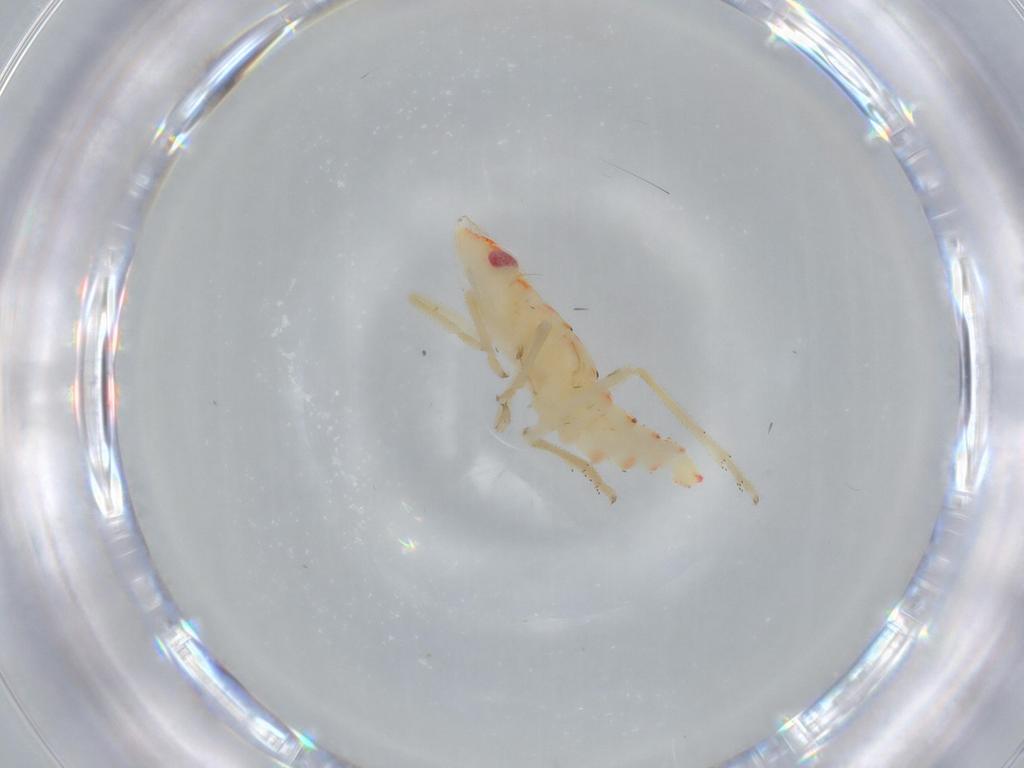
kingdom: Animalia
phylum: Arthropoda
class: Insecta
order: Hemiptera
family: Tropiduchidae
